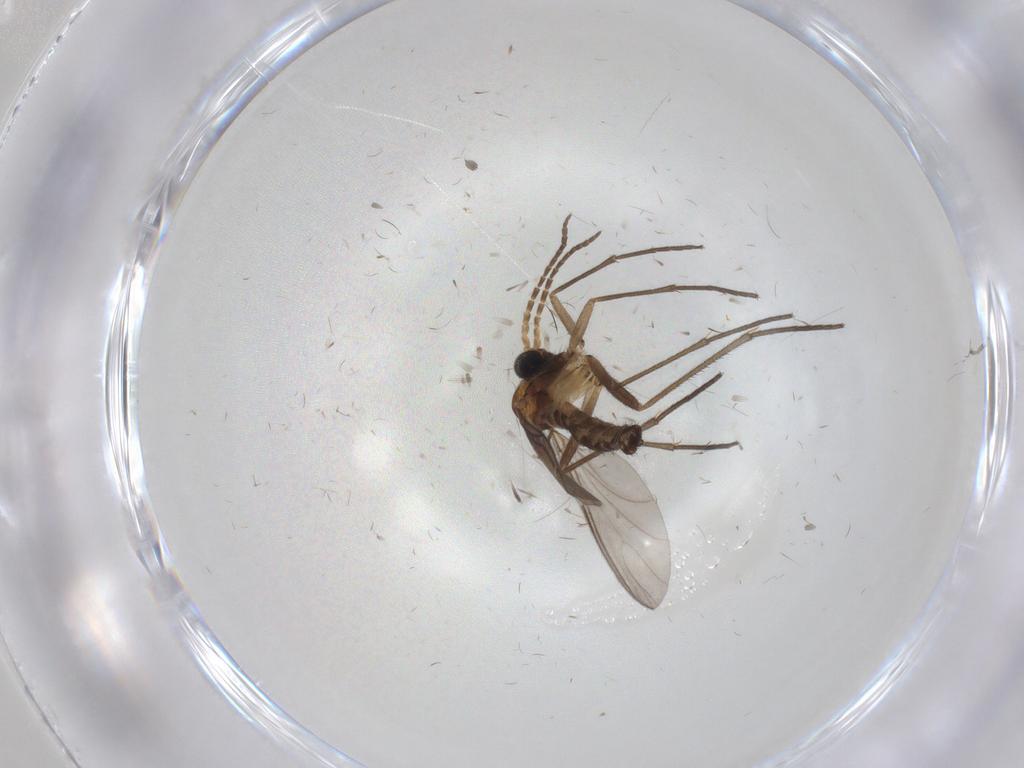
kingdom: Animalia
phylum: Arthropoda
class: Insecta
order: Diptera
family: Sciaridae
